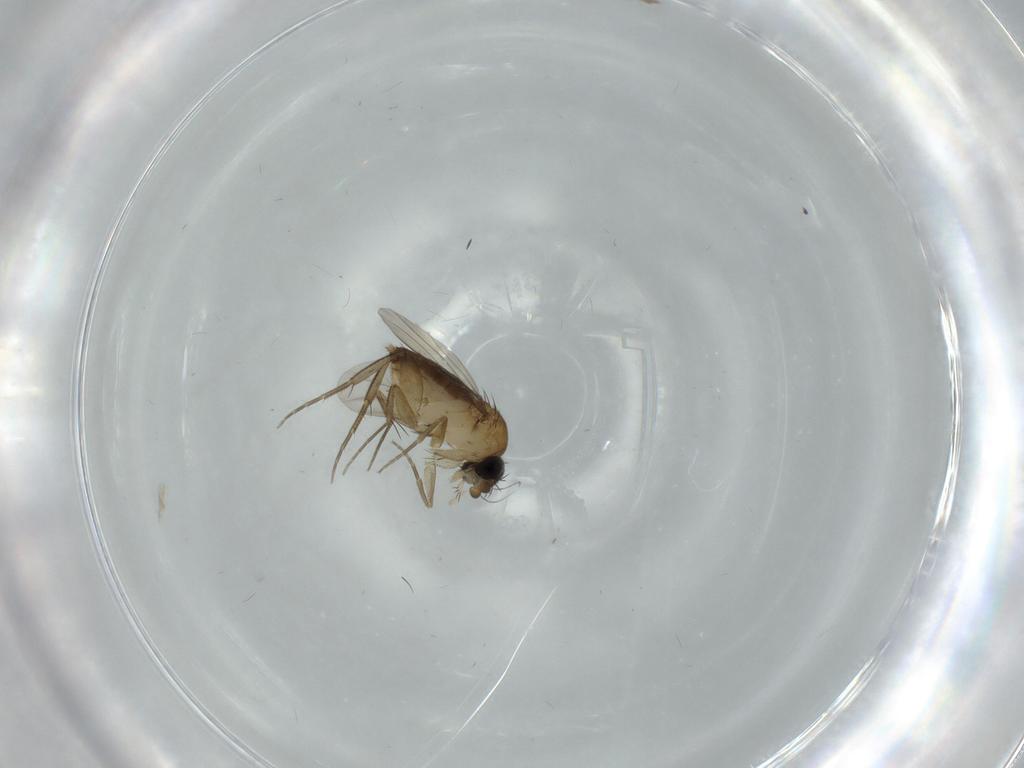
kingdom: Animalia
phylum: Arthropoda
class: Insecta
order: Diptera
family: Phoridae
